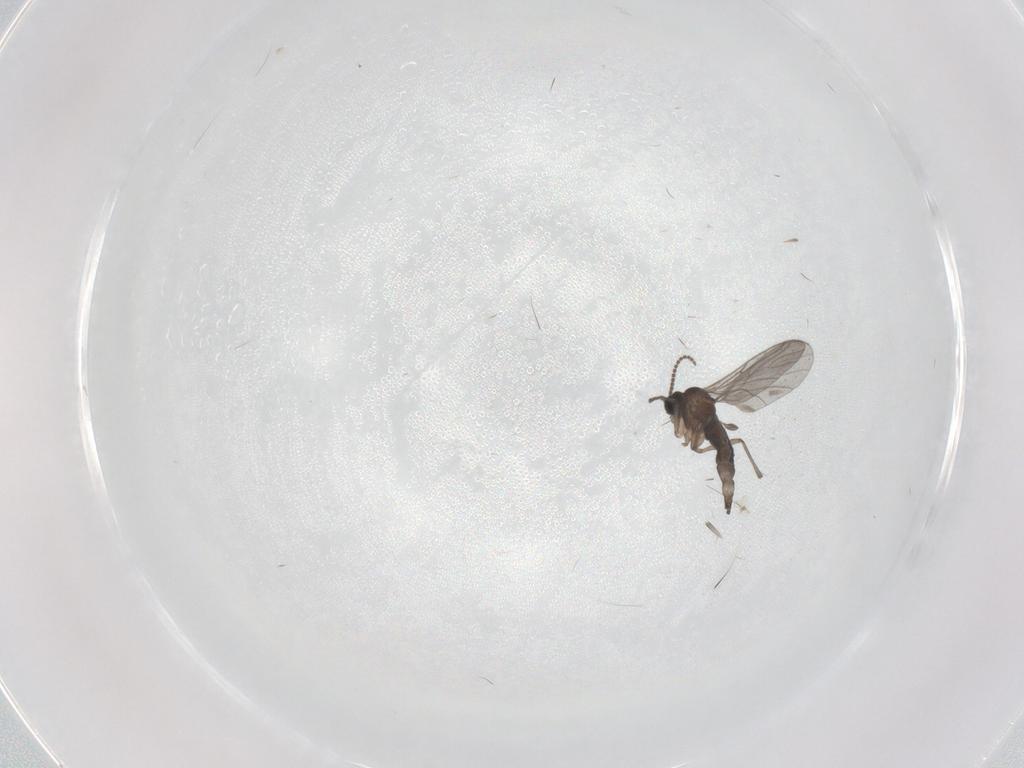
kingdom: Animalia
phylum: Arthropoda
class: Insecta
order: Diptera
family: Sciaridae
